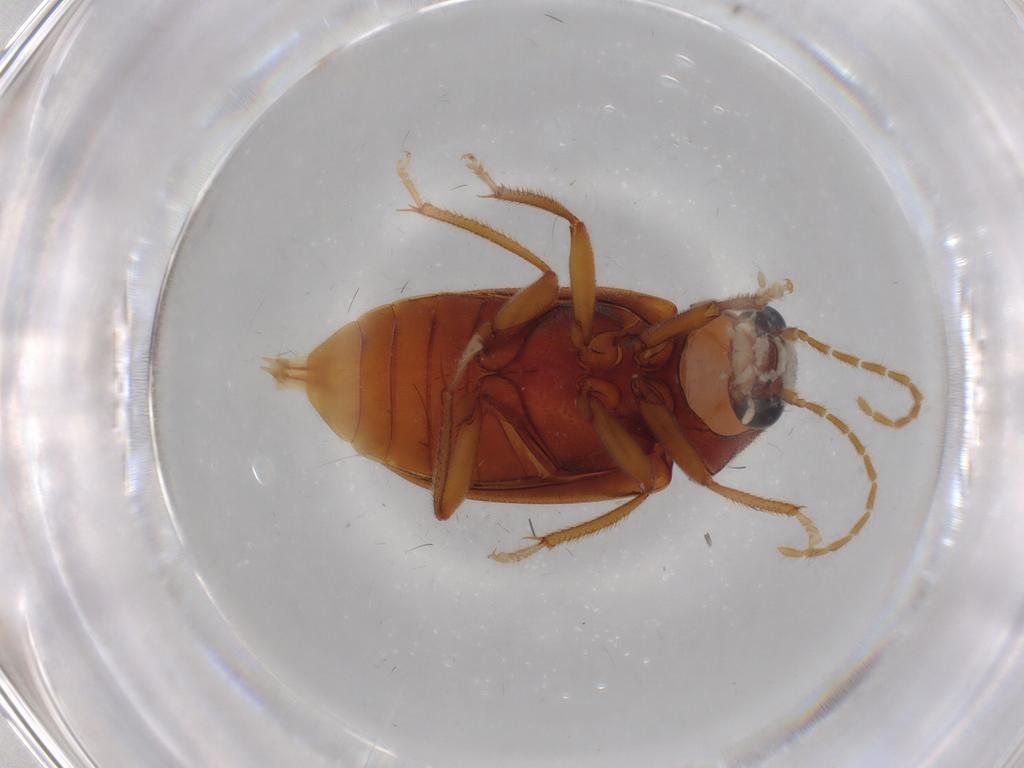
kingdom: Animalia
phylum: Arthropoda
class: Insecta
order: Coleoptera
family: Ptilodactylidae
